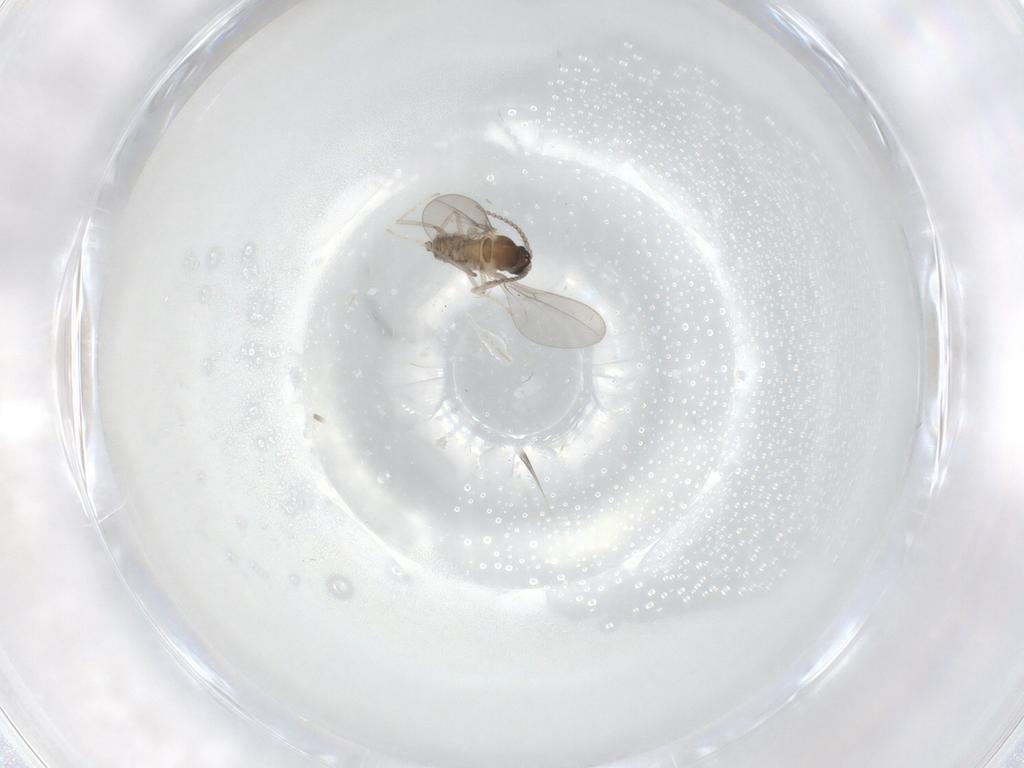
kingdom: Animalia
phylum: Arthropoda
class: Insecta
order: Diptera
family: Cecidomyiidae
